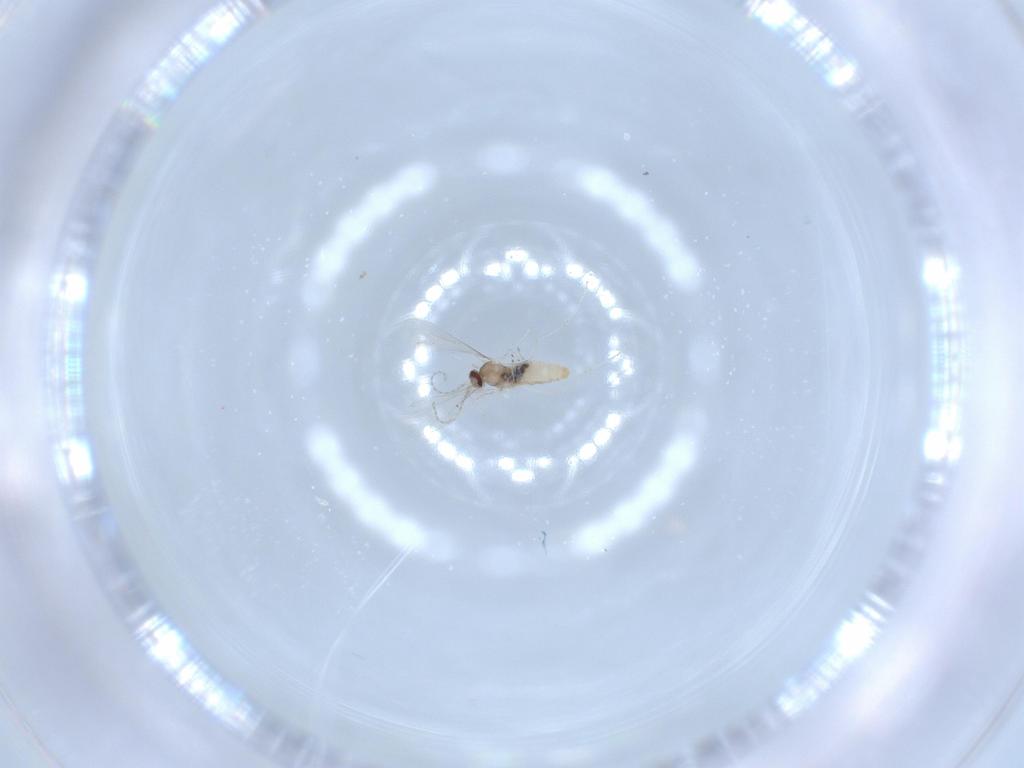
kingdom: Animalia
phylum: Arthropoda
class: Insecta
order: Diptera
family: Cecidomyiidae
